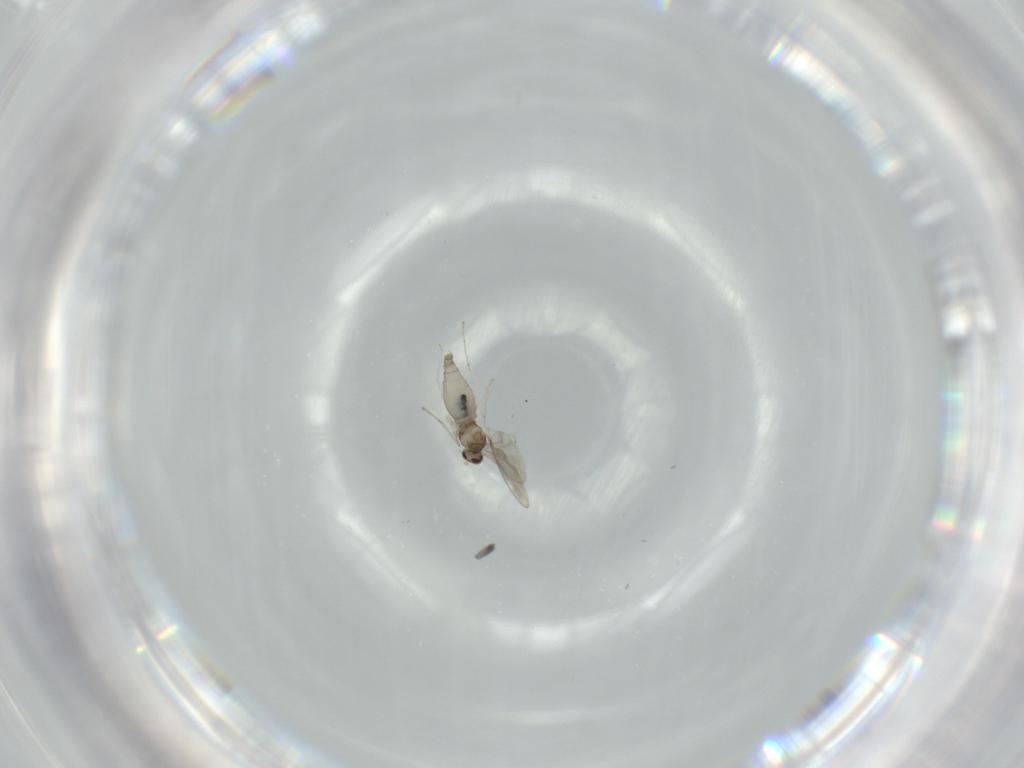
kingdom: Animalia
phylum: Arthropoda
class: Insecta
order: Diptera
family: Cecidomyiidae
